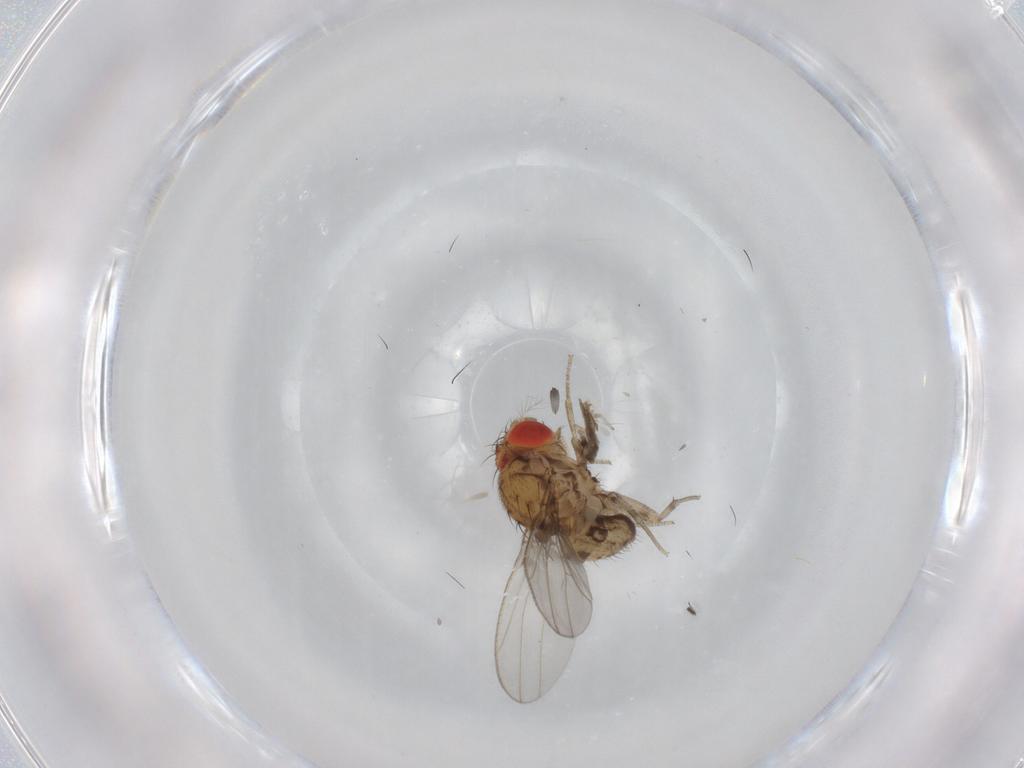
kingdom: Animalia
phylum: Arthropoda
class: Insecta
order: Diptera
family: Drosophilidae
